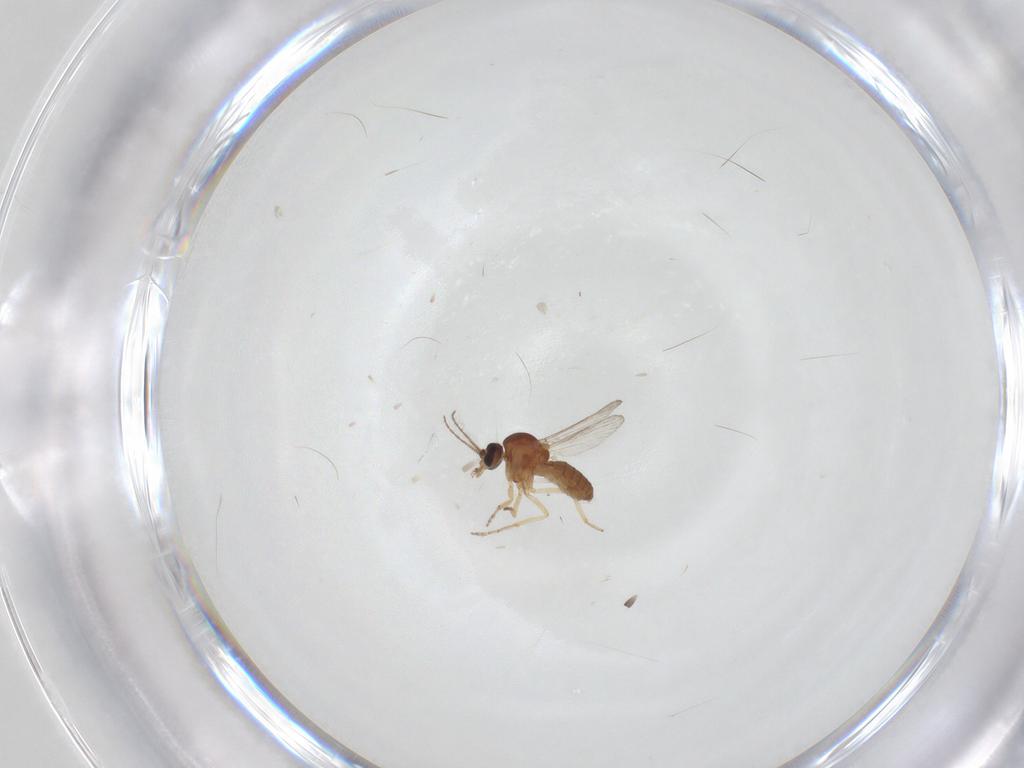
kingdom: Animalia
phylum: Arthropoda
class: Insecta
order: Diptera
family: Ceratopogonidae
